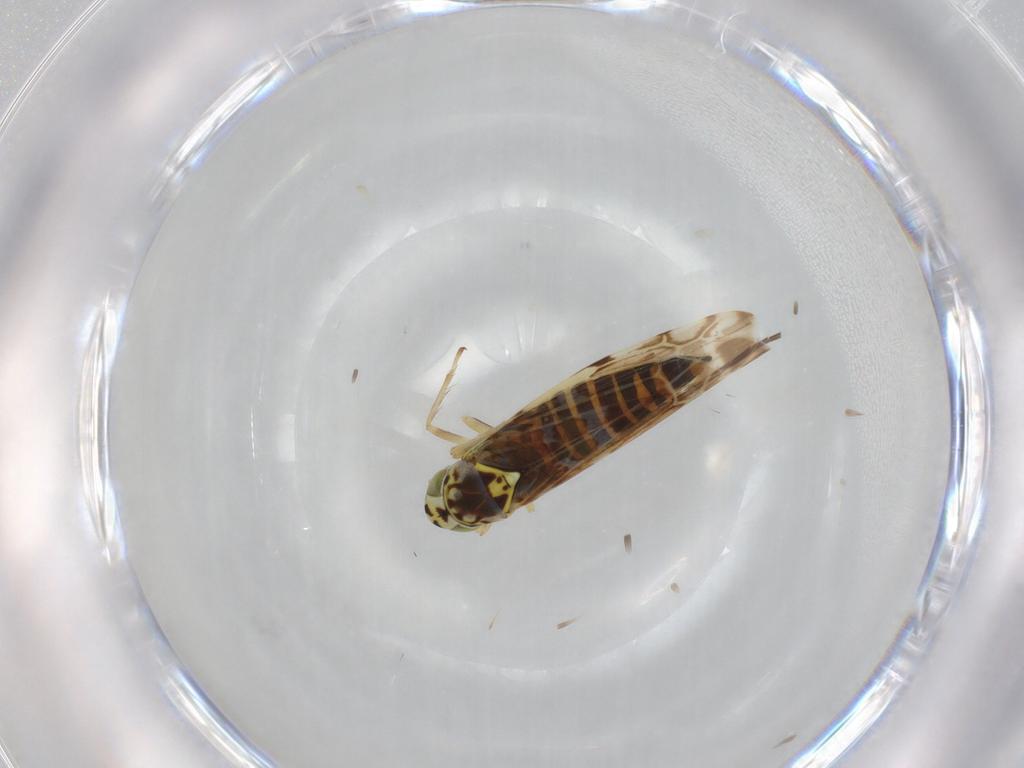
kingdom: Animalia
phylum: Arthropoda
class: Insecta
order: Hemiptera
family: Cicadellidae
